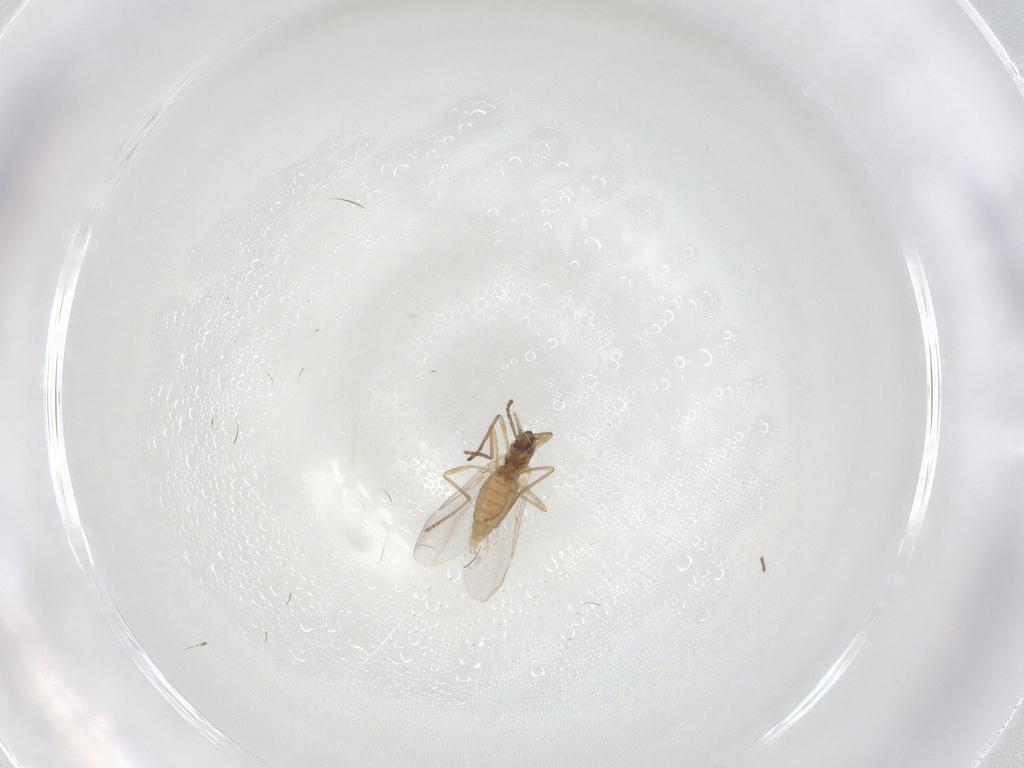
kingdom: Animalia
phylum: Arthropoda
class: Insecta
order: Diptera
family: Cecidomyiidae
